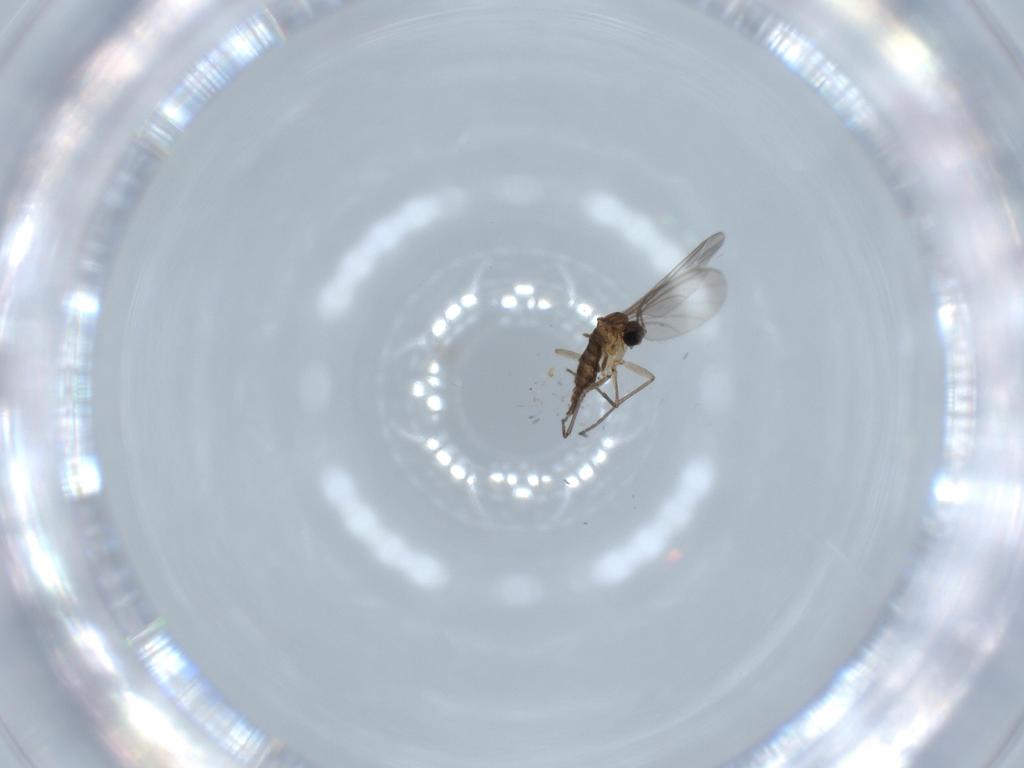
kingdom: Animalia
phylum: Arthropoda
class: Insecta
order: Diptera
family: Sciaridae
